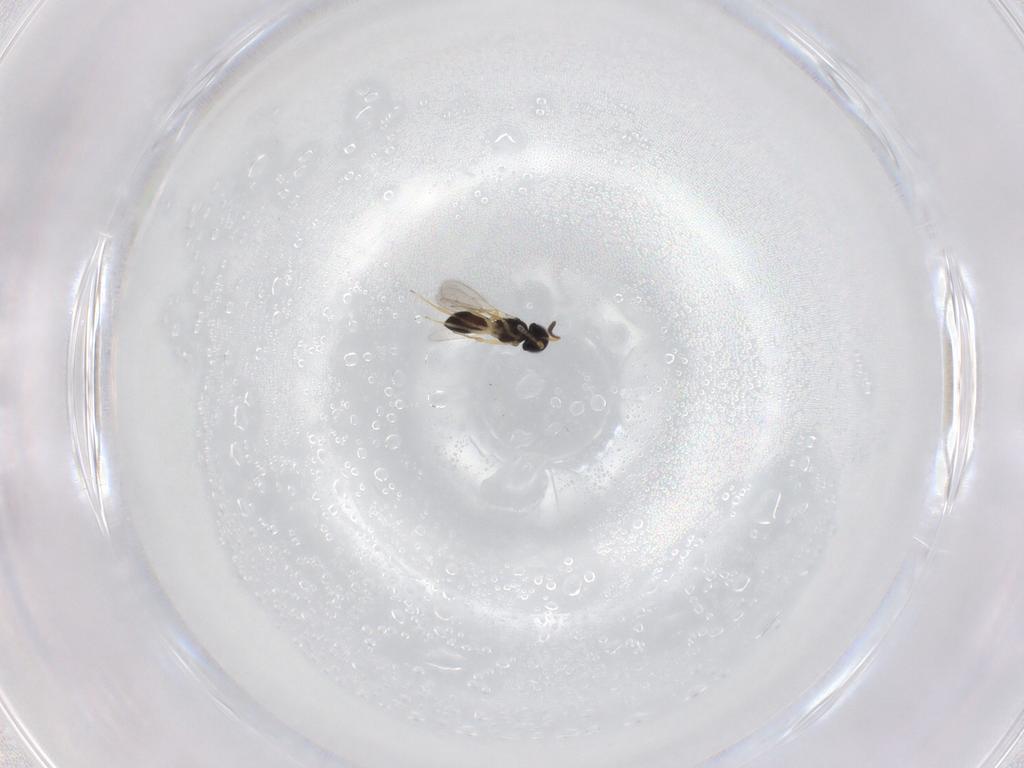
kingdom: Animalia
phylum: Arthropoda
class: Insecta
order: Hymenoptera
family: Scelionidae
